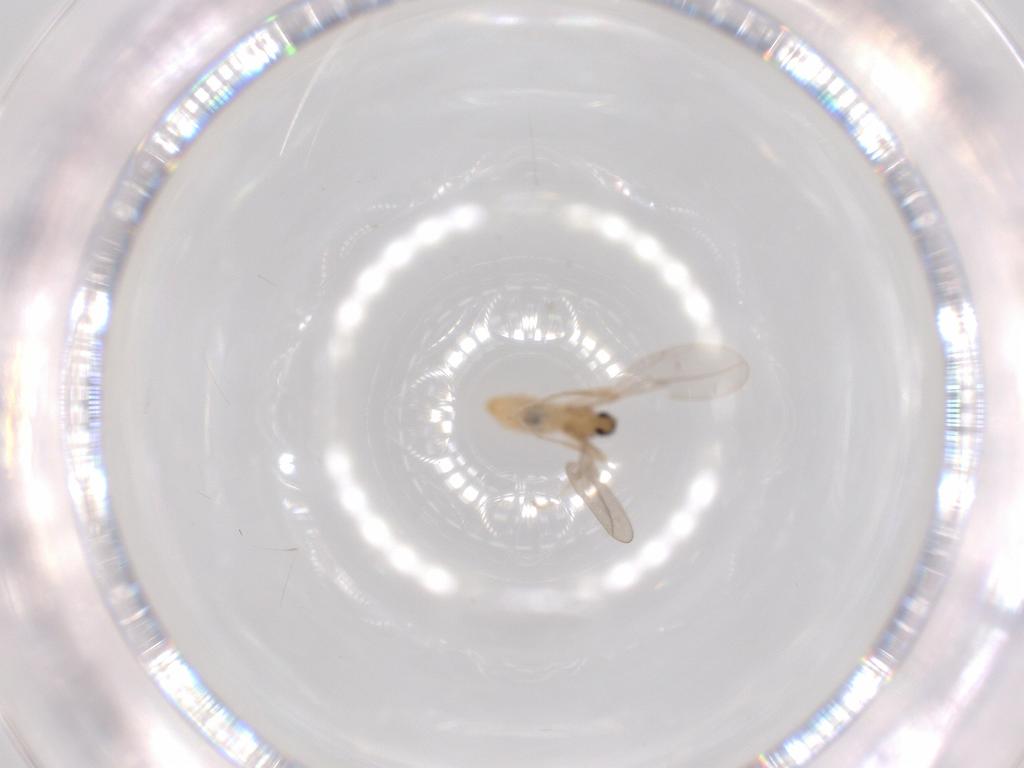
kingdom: Animalia
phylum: Arthropoda
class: Insecta
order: Diptera
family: Cecidomyiidae
